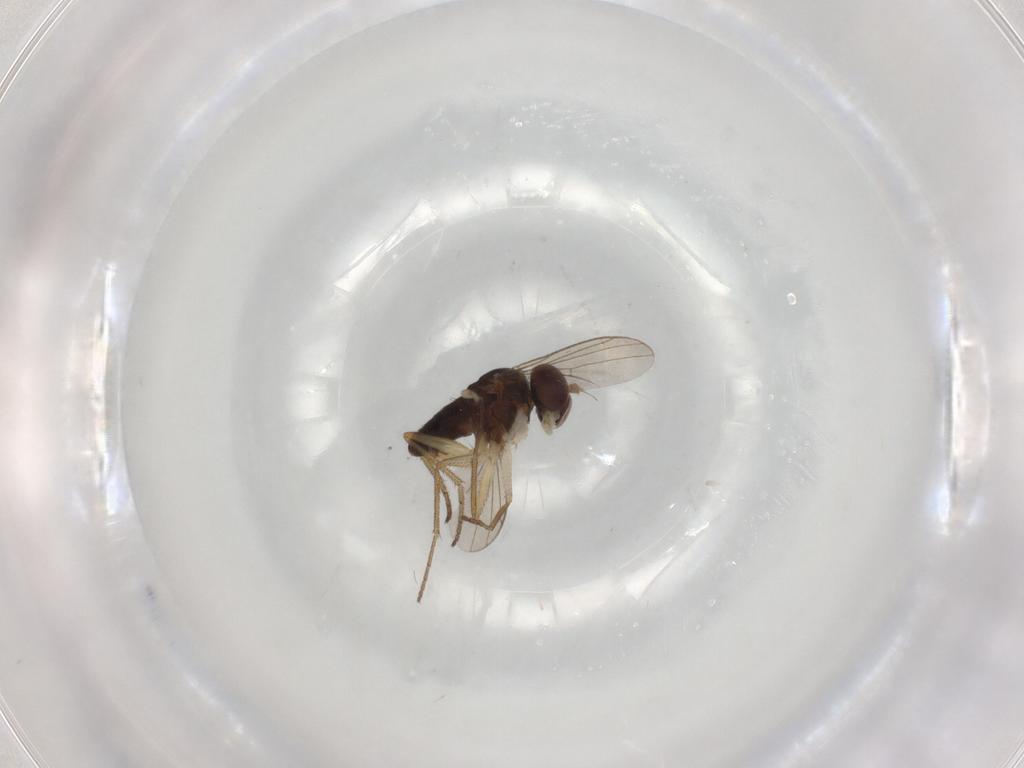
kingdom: Animalia
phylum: Arthropoda
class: Insecta
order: Diptera
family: Dolichopodidae
